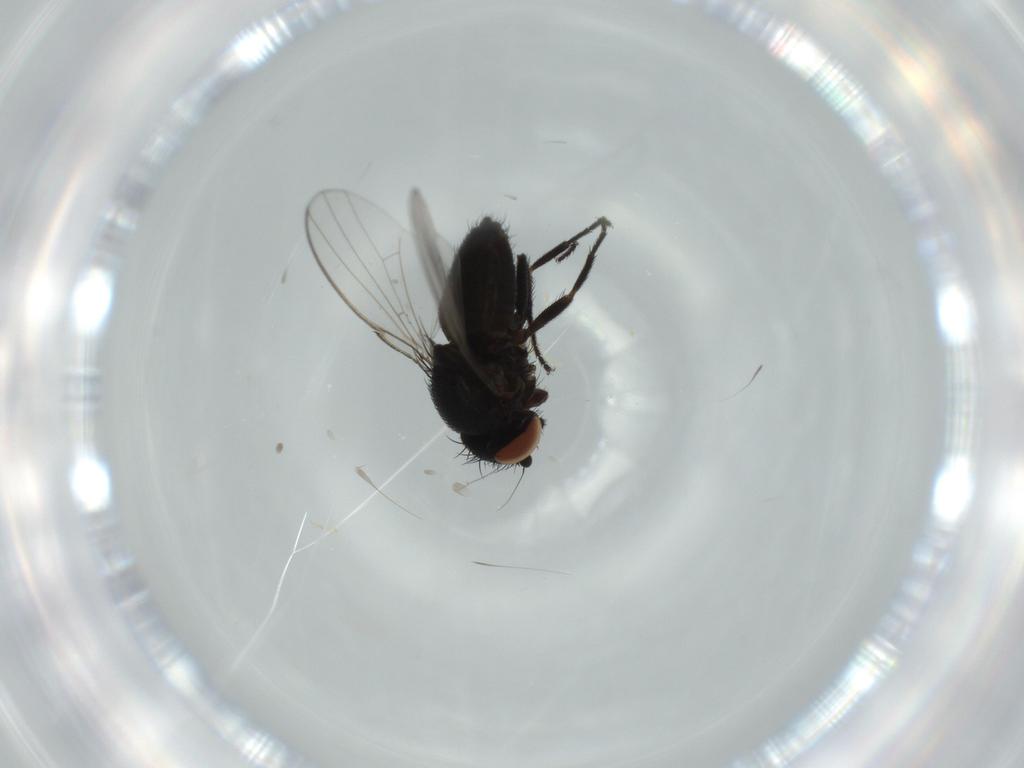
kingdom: Animalia
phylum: Arthropoda
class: Insecta
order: Diptera
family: Milichiidae
